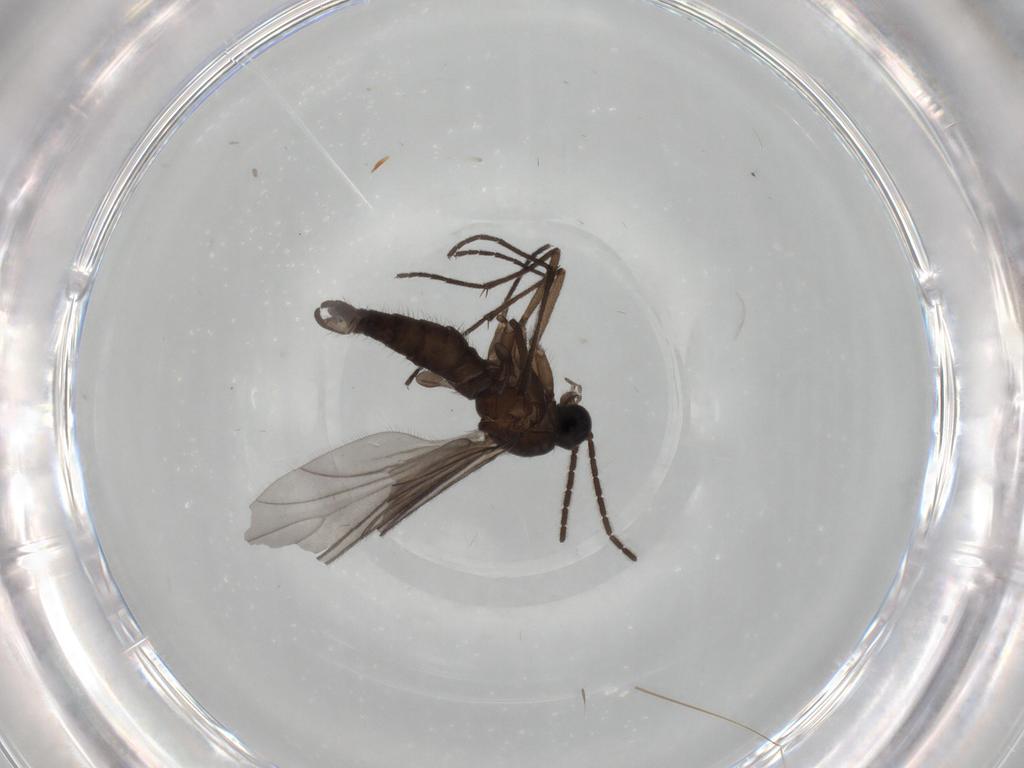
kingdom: Animalia
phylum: Arthropoda
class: Insecta
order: Diptera
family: Sciaridae
